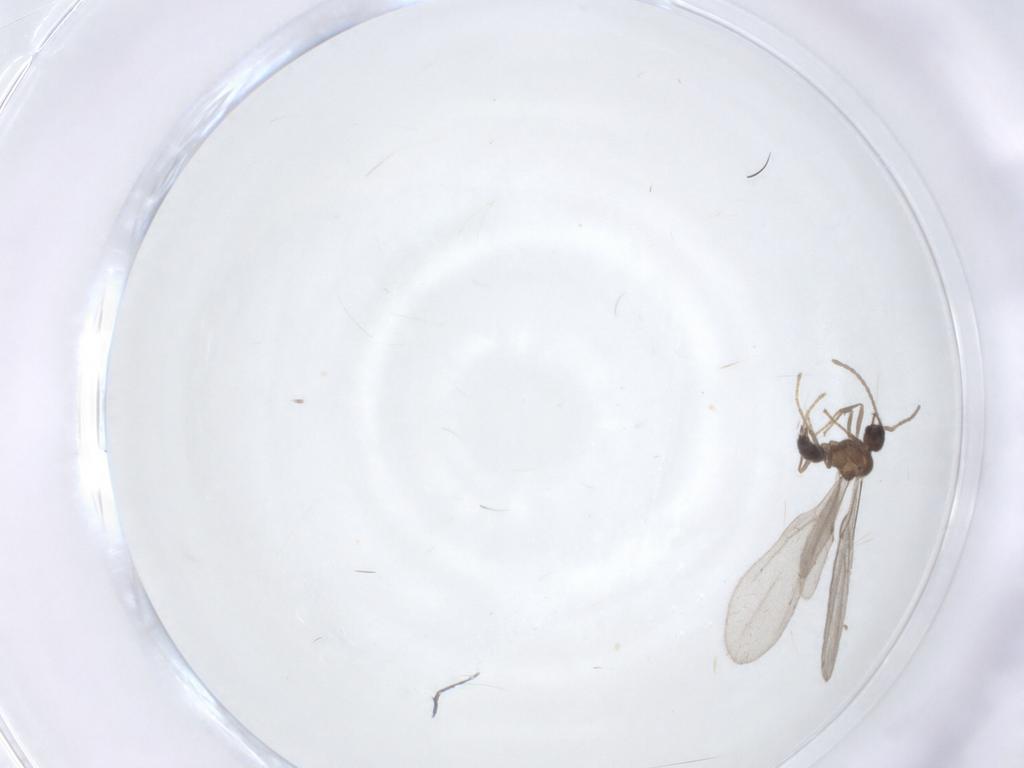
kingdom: Animalia
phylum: Arthropoda
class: Insecta
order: Hymenoptera
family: Formicidae
